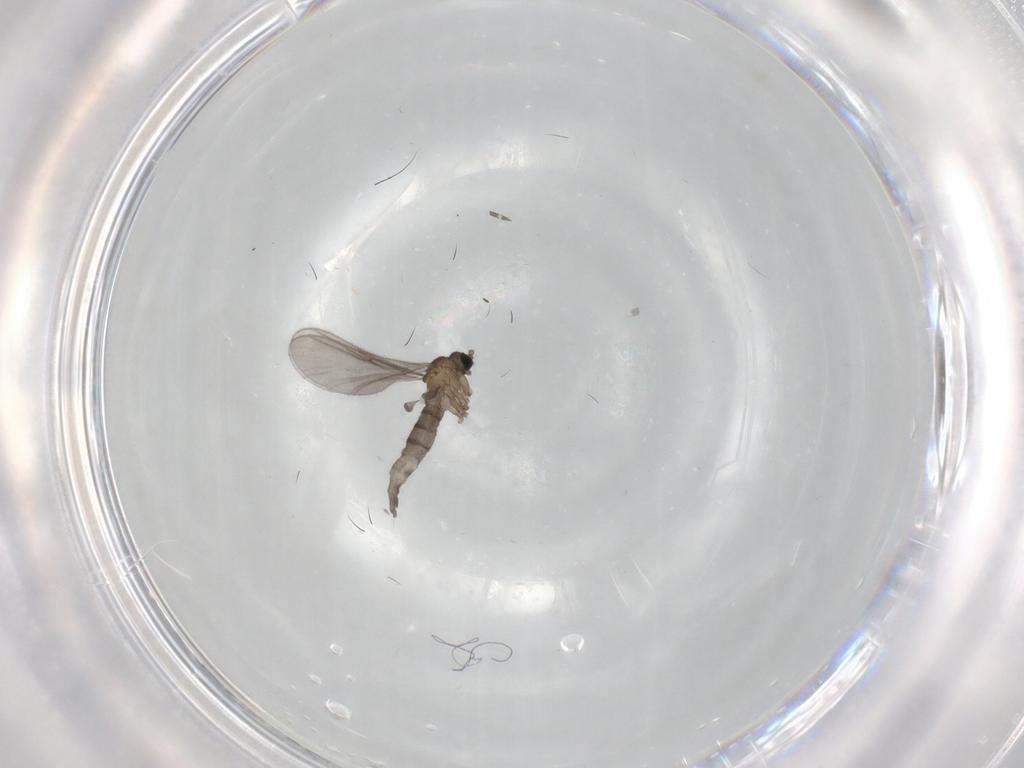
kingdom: Animalia
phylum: Arthropoda
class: Insecta
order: Diptera
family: Sciaridae
